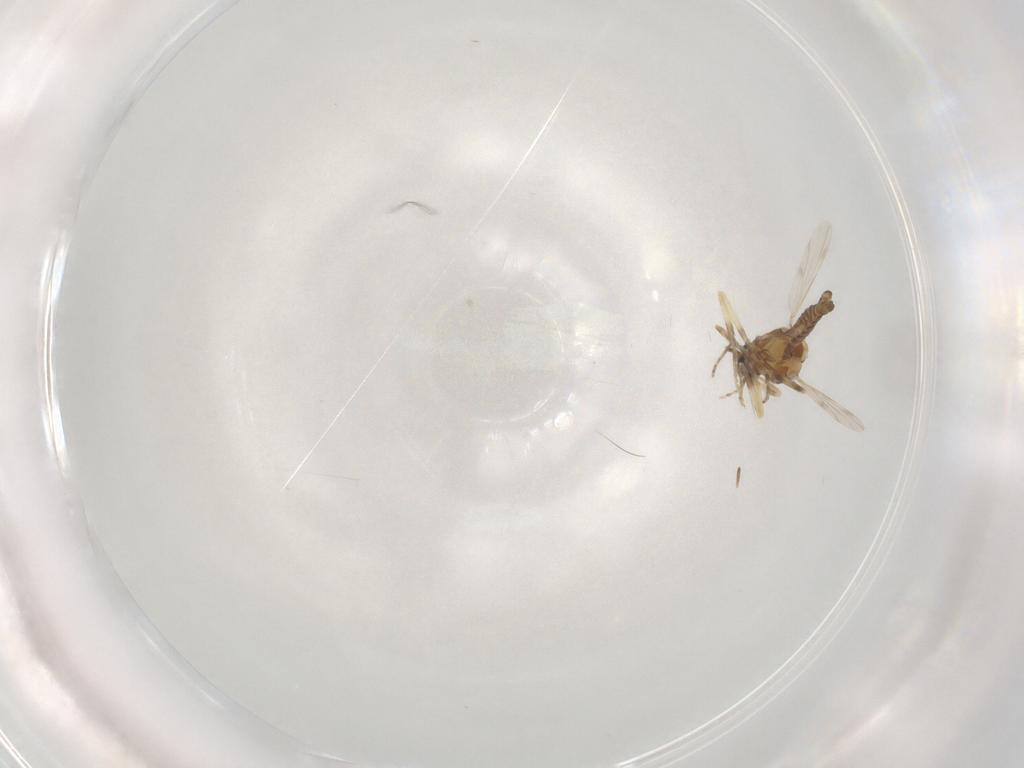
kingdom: Animalia
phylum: Arthropoda
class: Insecta
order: Diptera
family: Ceratopogonidae
